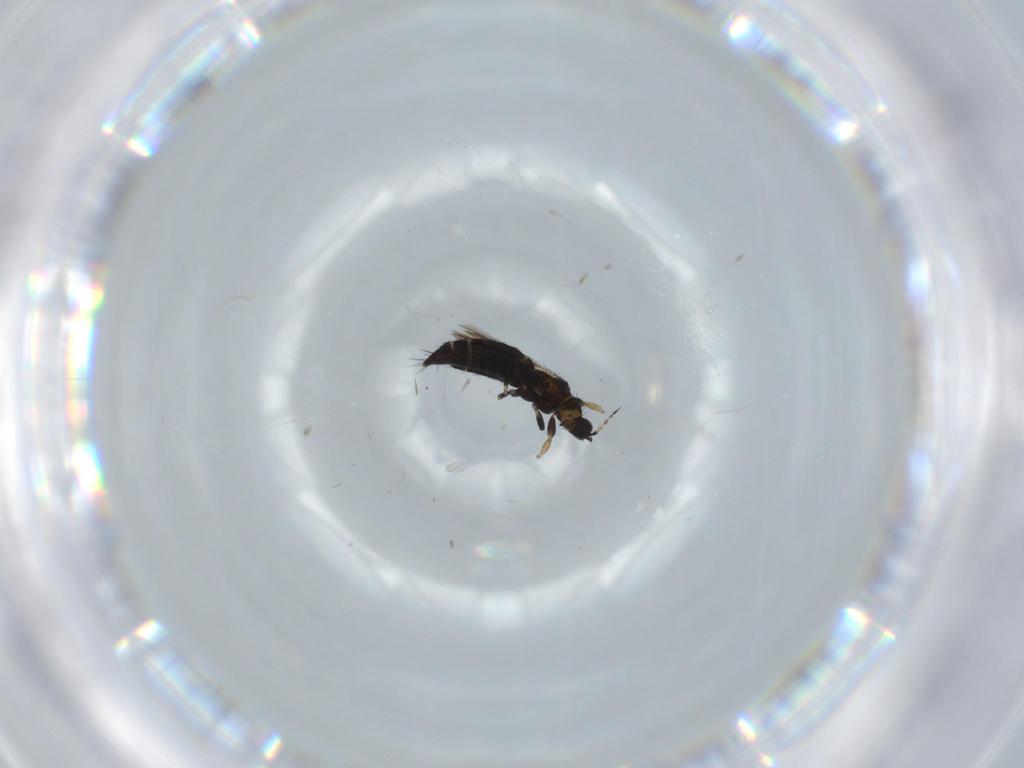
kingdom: Animalia
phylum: Arthropoda
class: Insecta
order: Thysanoptera
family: Thripidae
